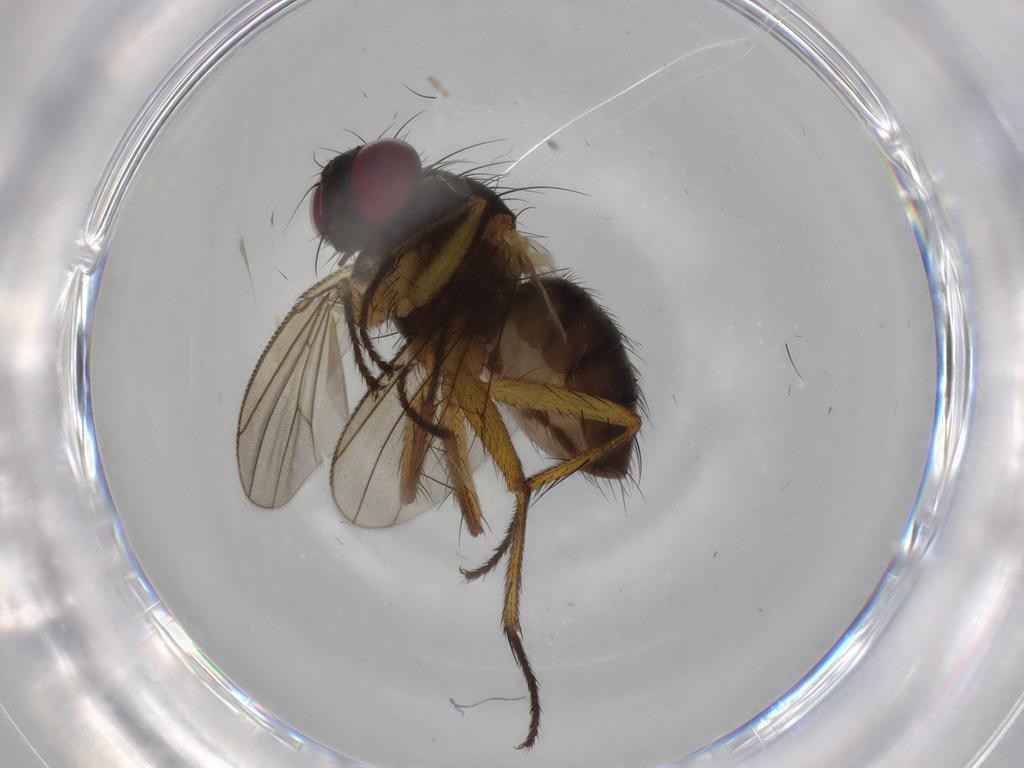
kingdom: Animalia
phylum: Arthropoda
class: Insecta
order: Diptera
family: Muscidae
